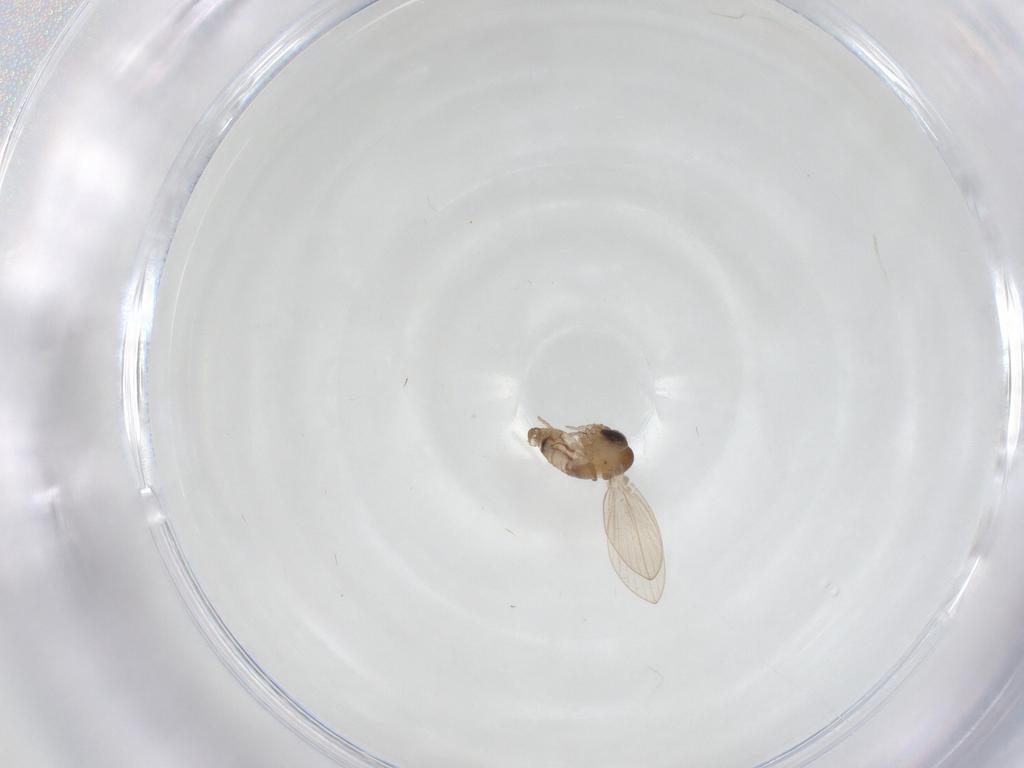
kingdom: Animalia
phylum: Arthropoda
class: Insecta
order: Diptera
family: Psychodidae
